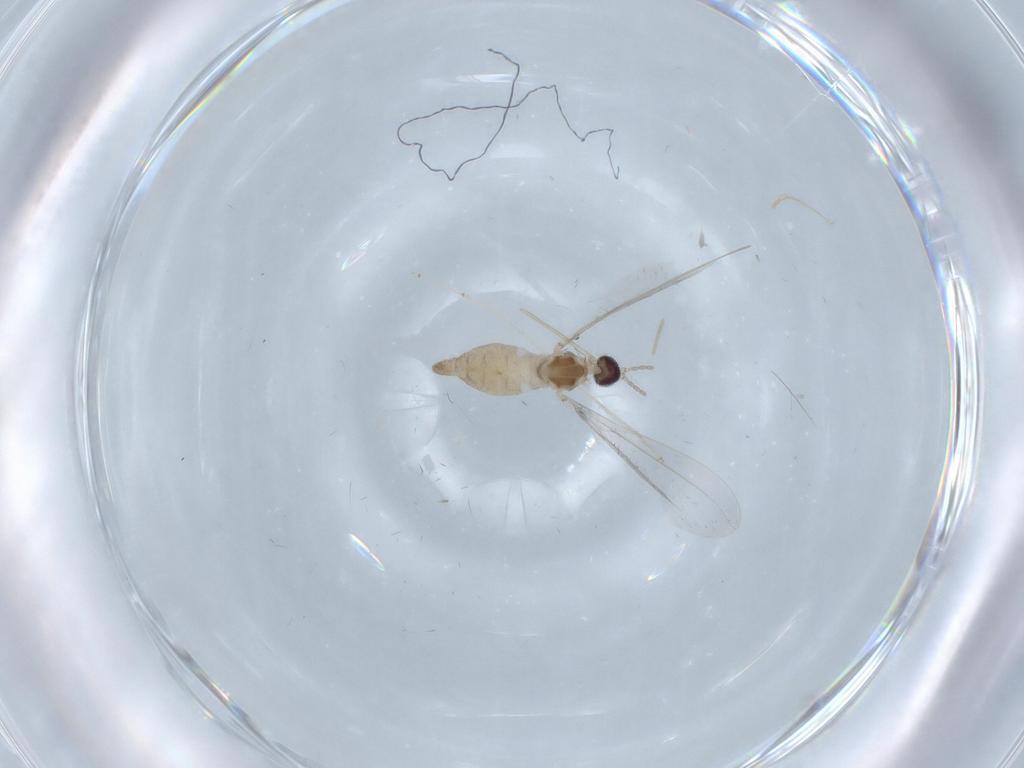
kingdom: Animalia
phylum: Arthropoda
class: Insecta
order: Diptera
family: Cecidomyiidae
